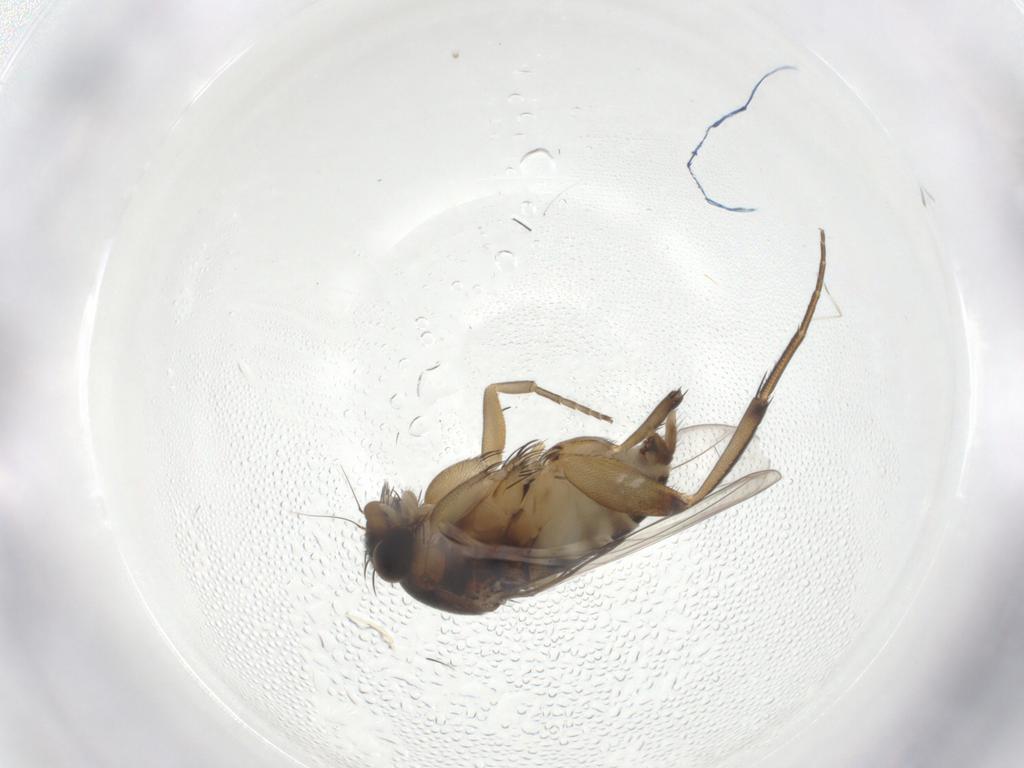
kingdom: Animalia
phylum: Arthropoda
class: Insecta
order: Diptera
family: Phoridae
